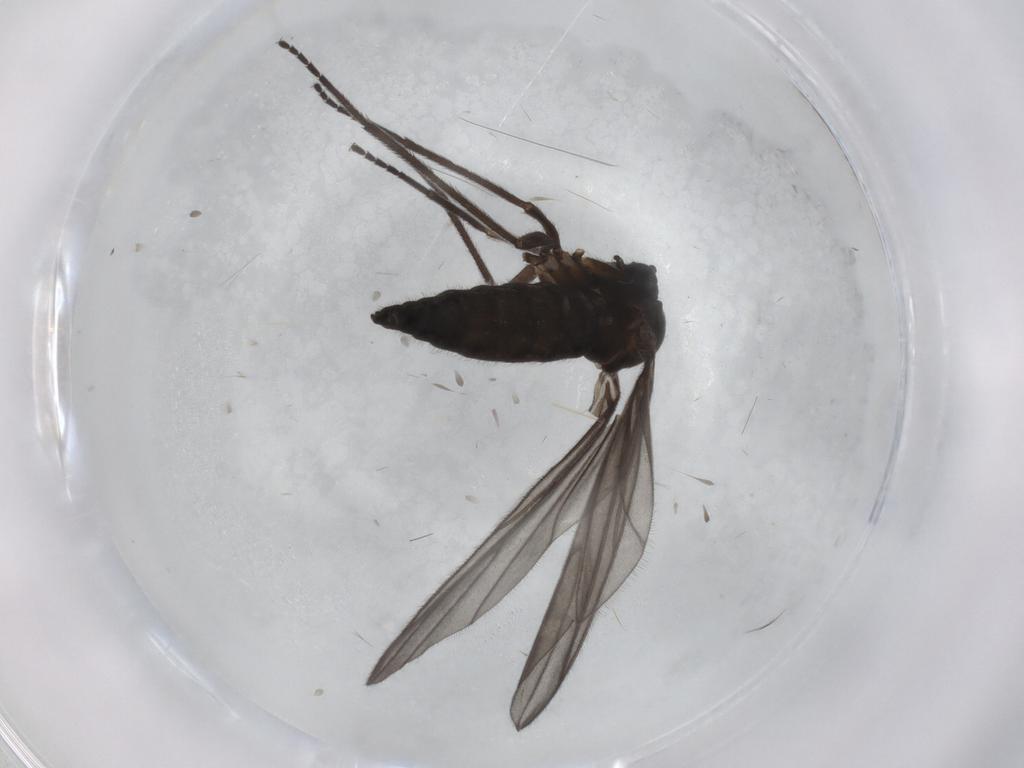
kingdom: Animalia
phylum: Arthropoda
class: Insecta
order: Diptera
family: Sciaridae
